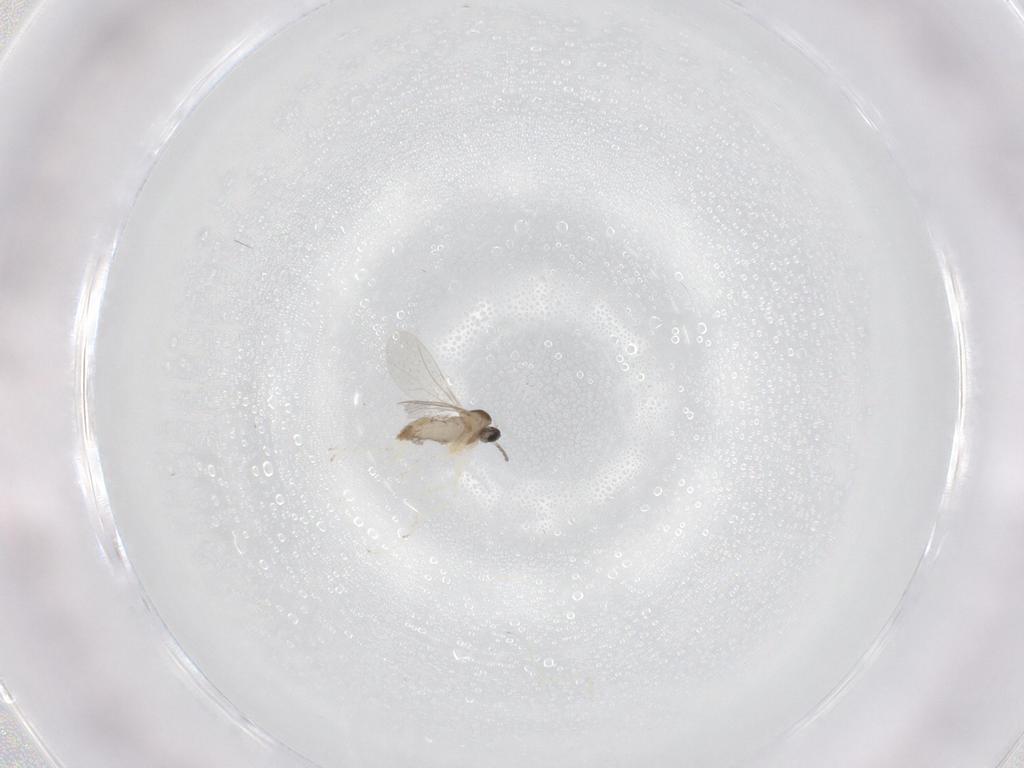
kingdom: Animalia
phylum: Arthropoda
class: Insecta
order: Diptera
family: Cecidomyiidae
